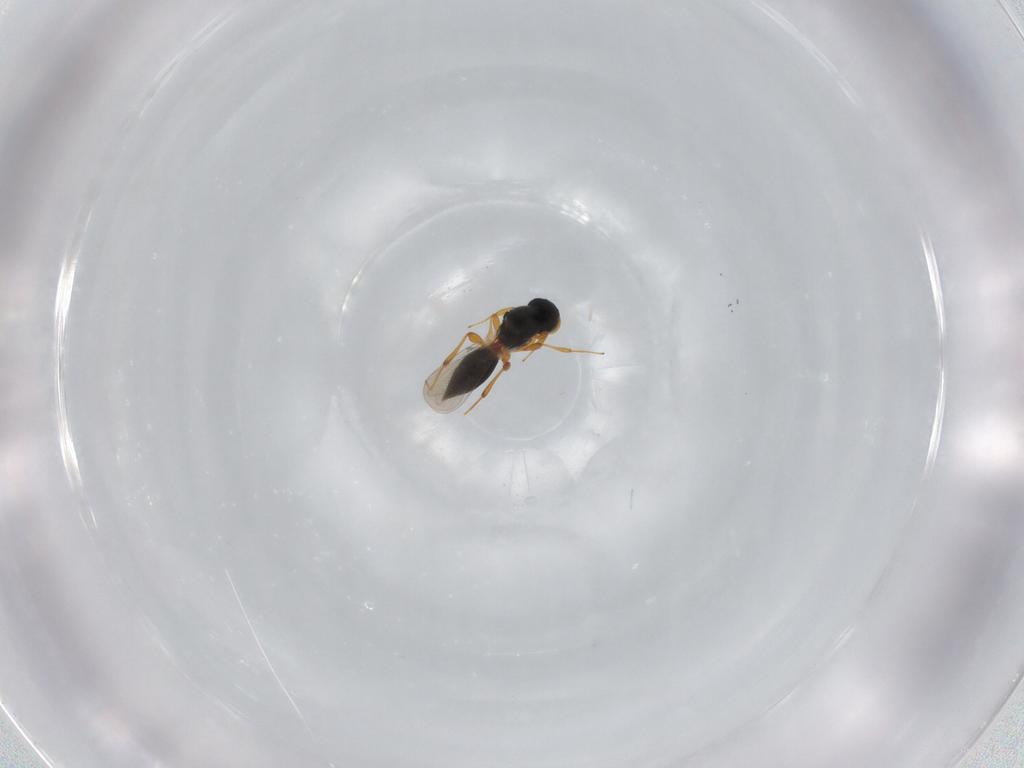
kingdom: Animalia
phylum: Arthropoda
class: Insecta
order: Hymenoptera
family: Platygastridae
